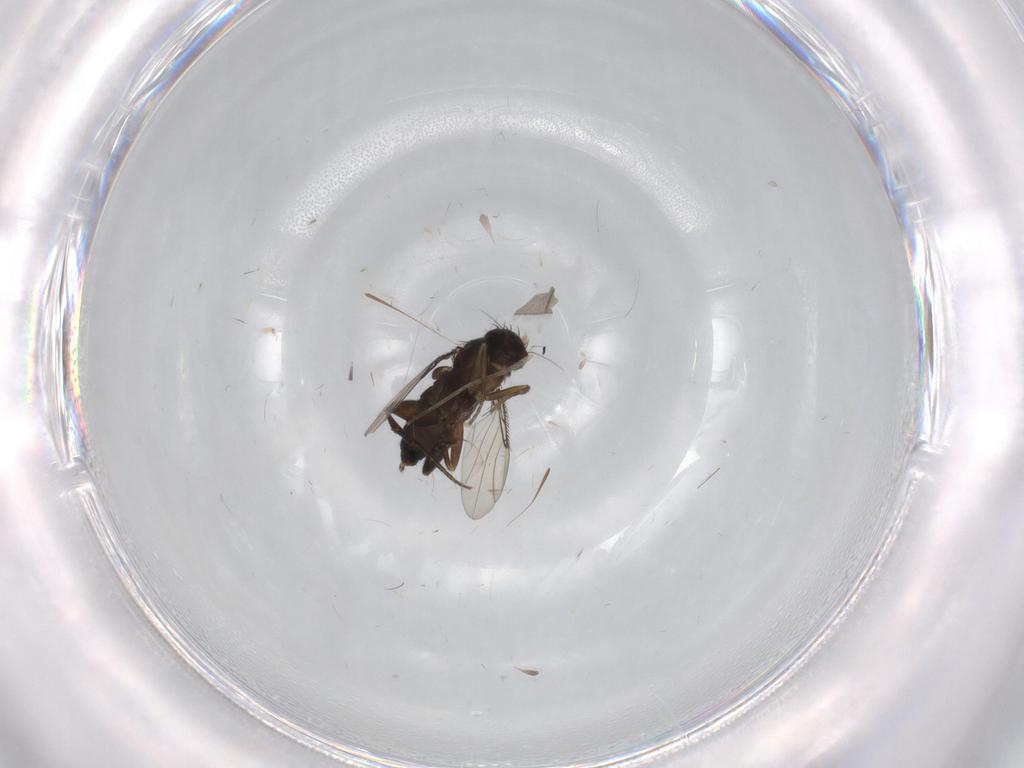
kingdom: Animalia
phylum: Arthropoda
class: Insecta
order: Diptera
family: Phoridae
